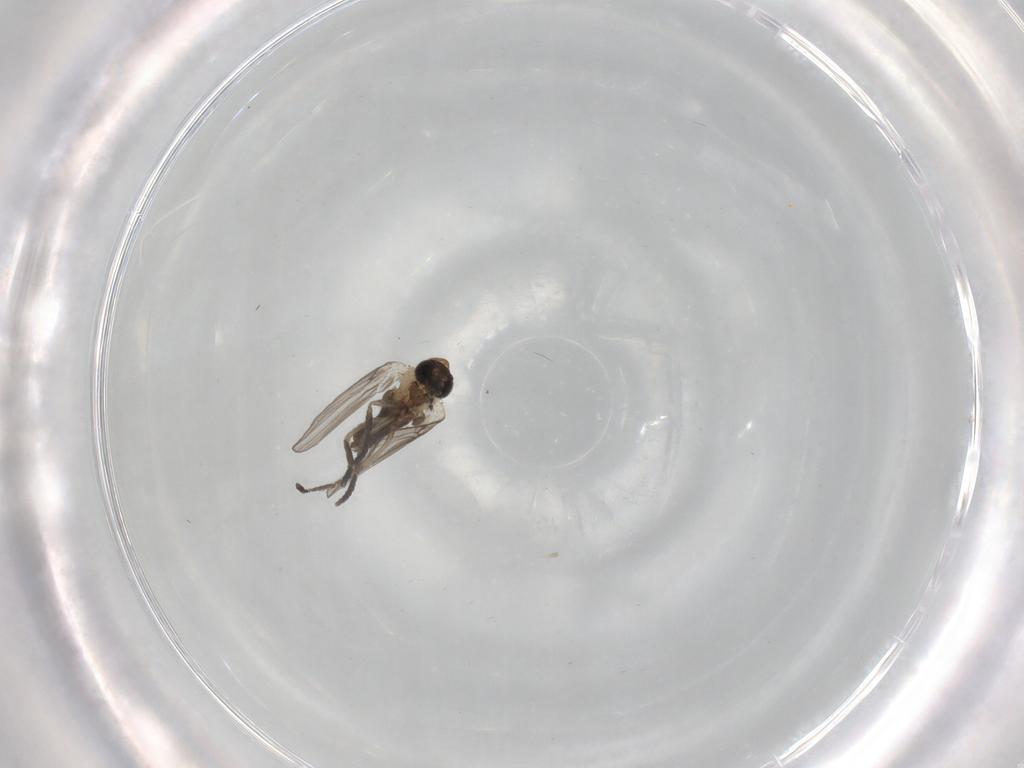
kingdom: Animalia
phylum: Arthropoda
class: Insecta
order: Diptera
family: Psychodidae
